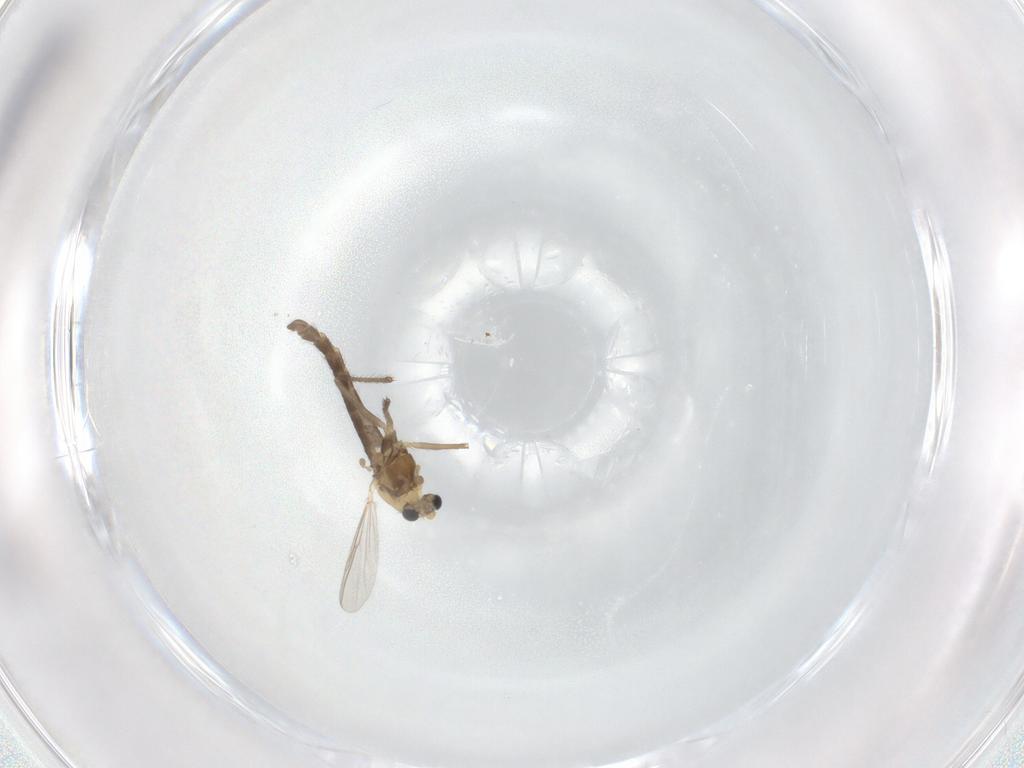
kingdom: Animalia
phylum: Arthropoda
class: Insecta
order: Diptera
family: Chironomidae
